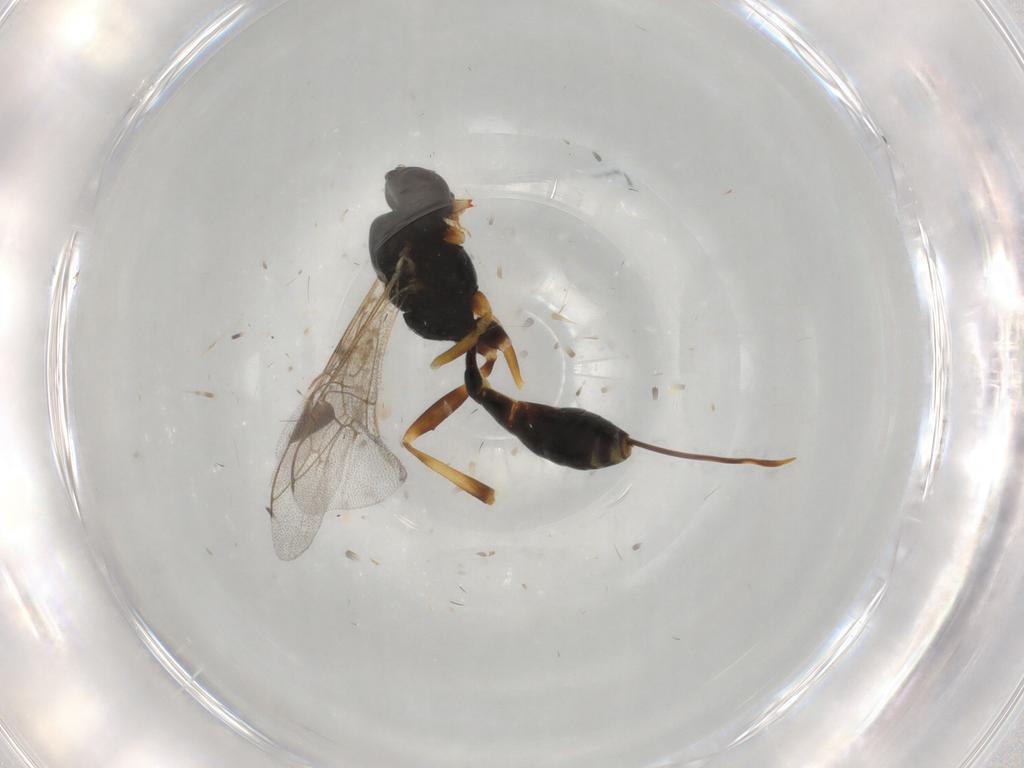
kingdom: Animalia
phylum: Arthropoda
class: Insecta
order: Hymenoptera
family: Ichneumonidae
